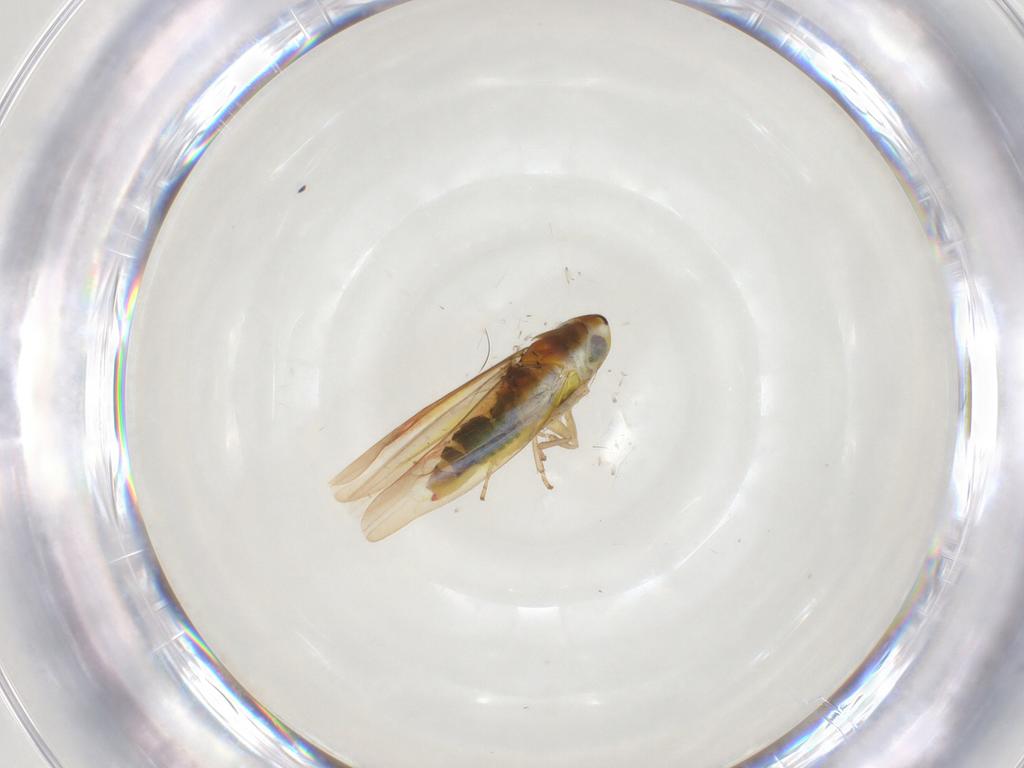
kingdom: Animalia
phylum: Arthropoda
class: Insecta
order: Hemiptera
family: Cicadellidae
